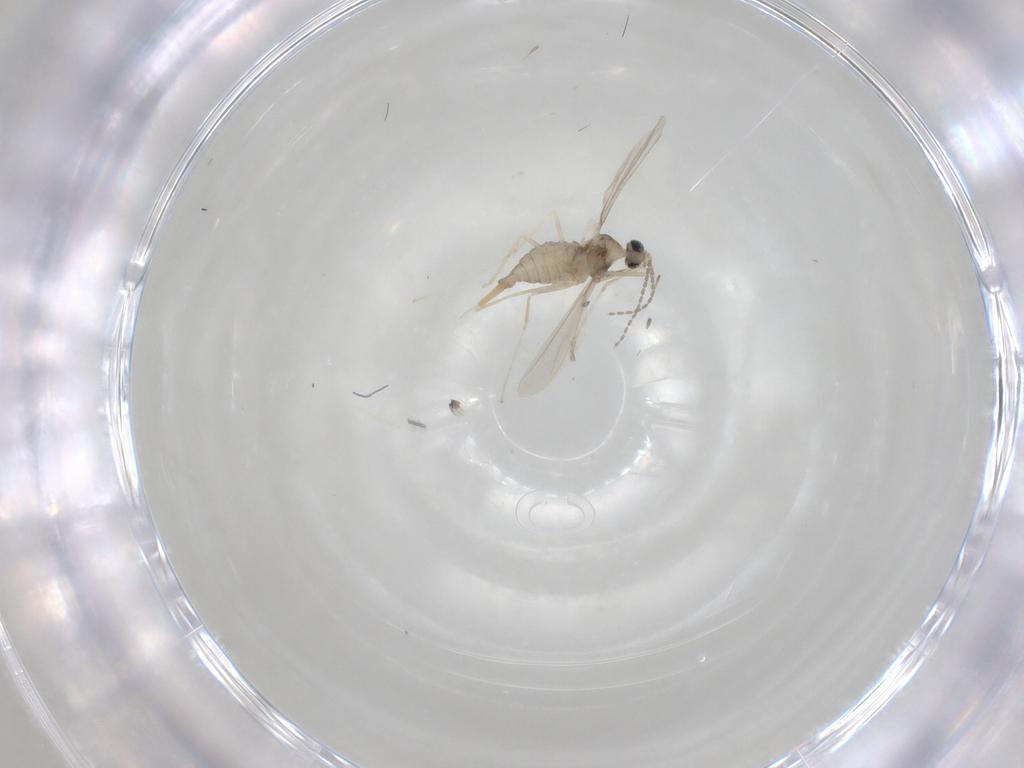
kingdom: Animalia
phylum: Arthropoda
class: Insecta
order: Diptera
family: Cecidomyiidae
